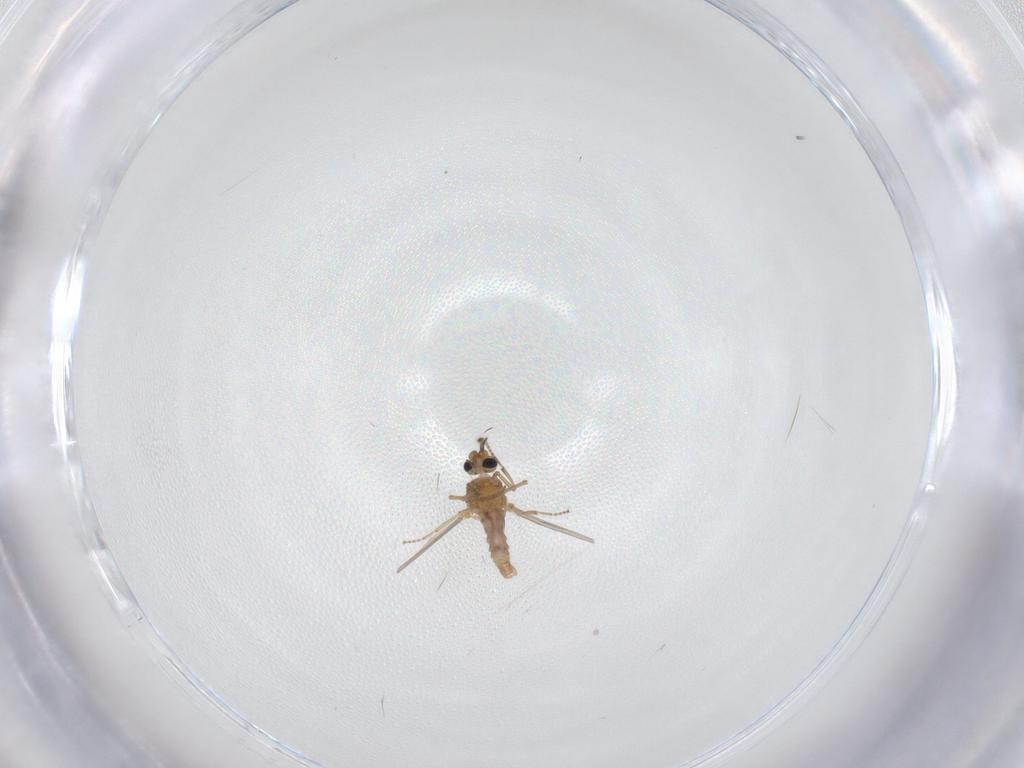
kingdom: Animalia
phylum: Arthropoda
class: Insecta
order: Diptera
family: Ceratopogonidae
